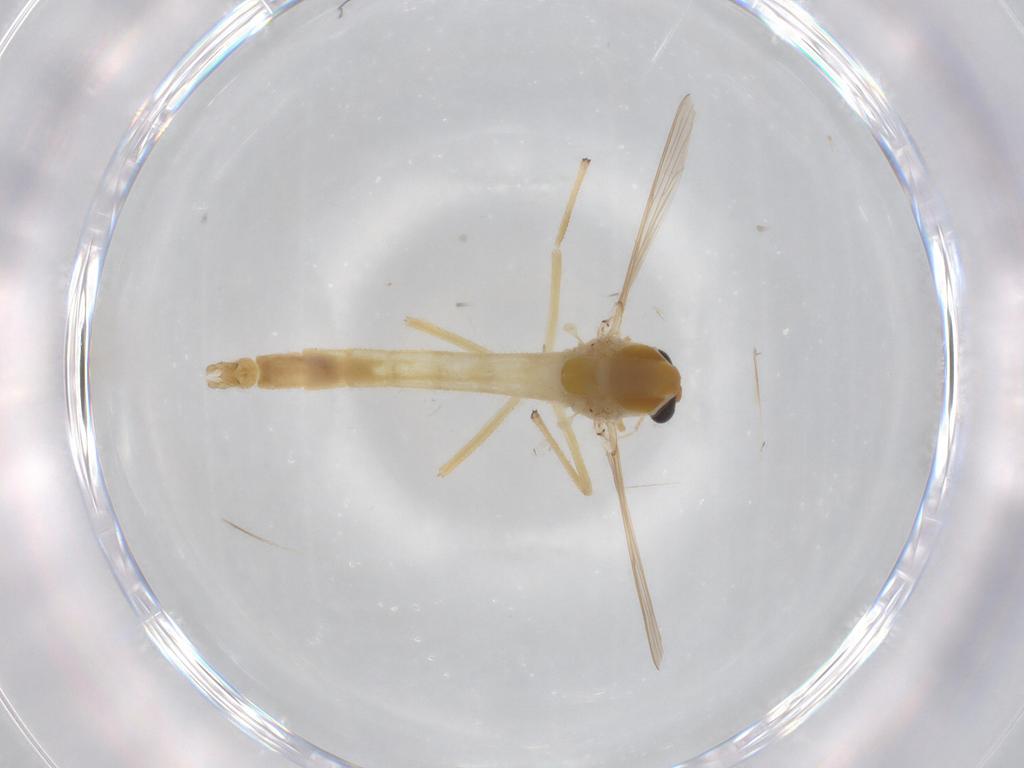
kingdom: Animalia
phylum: Arthropoda
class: Insecta
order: Diptera
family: Chironomidae
